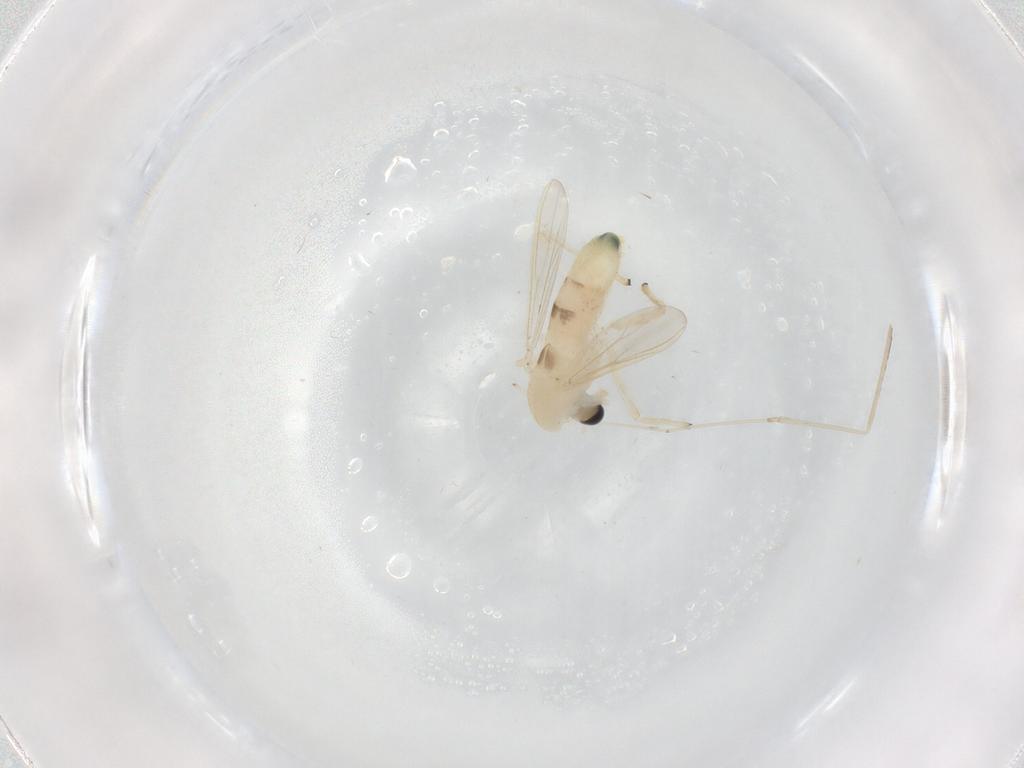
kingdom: Animalia
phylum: Arthropoda
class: Insecta
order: Diptera
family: Chironomidae
